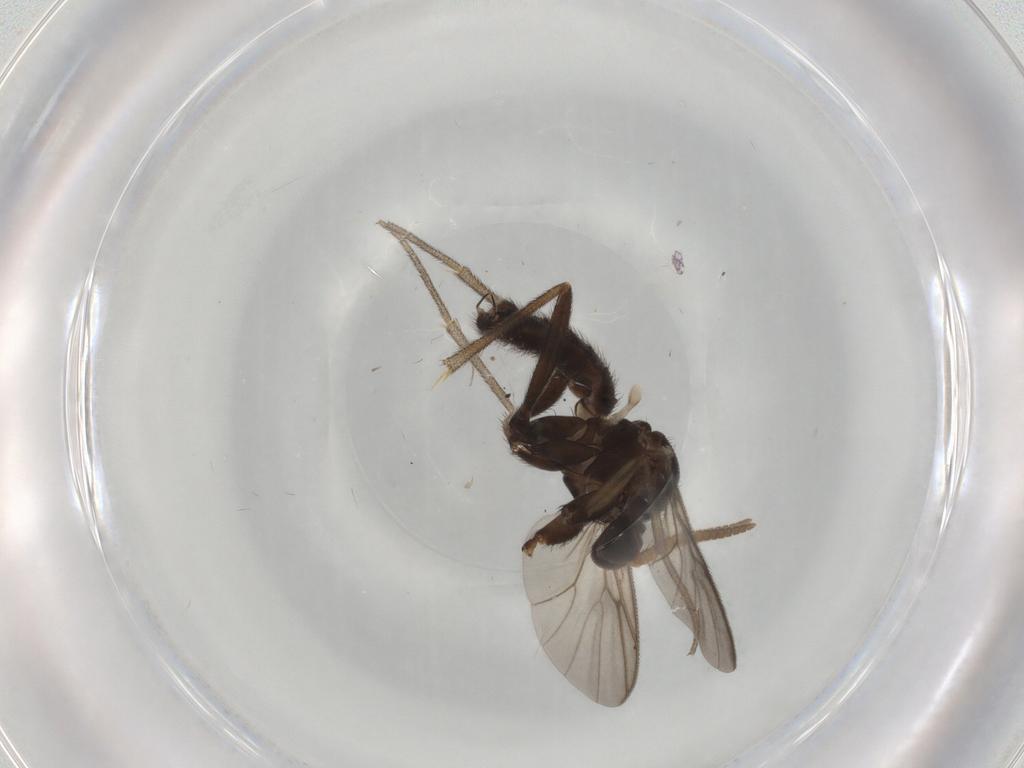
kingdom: Animalia
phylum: Arthropoda
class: Insecta
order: Diptera
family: Mycetophilidae
